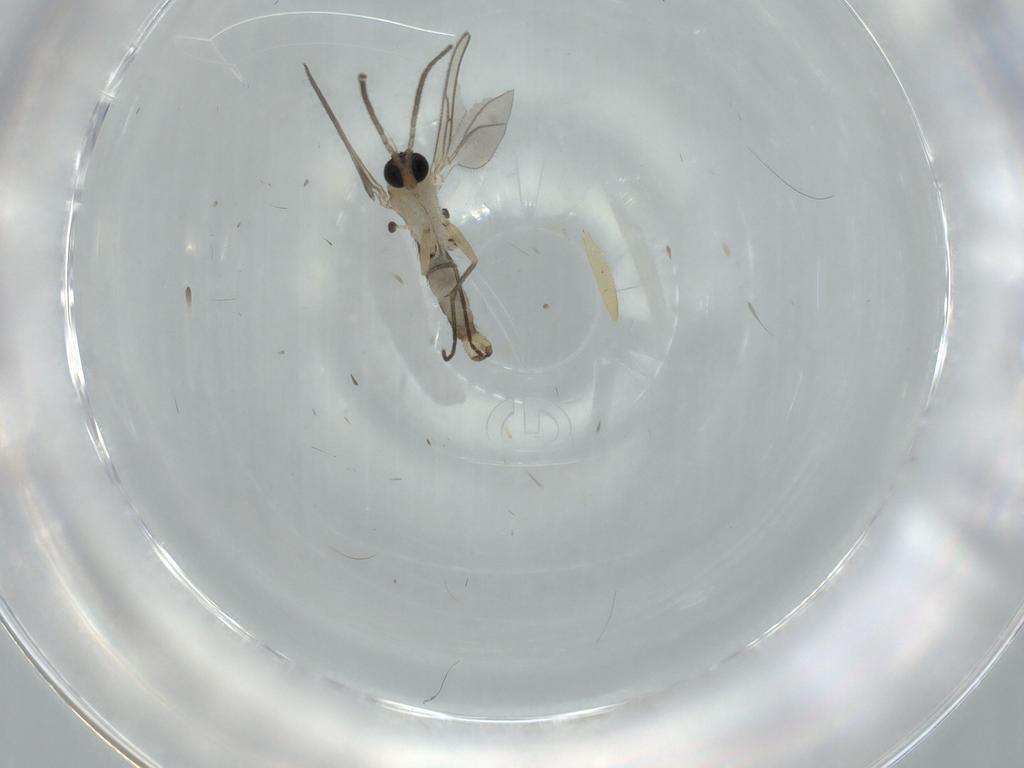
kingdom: Animalia
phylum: Arthropoda
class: Insecta
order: Diptera
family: Sciaridae
